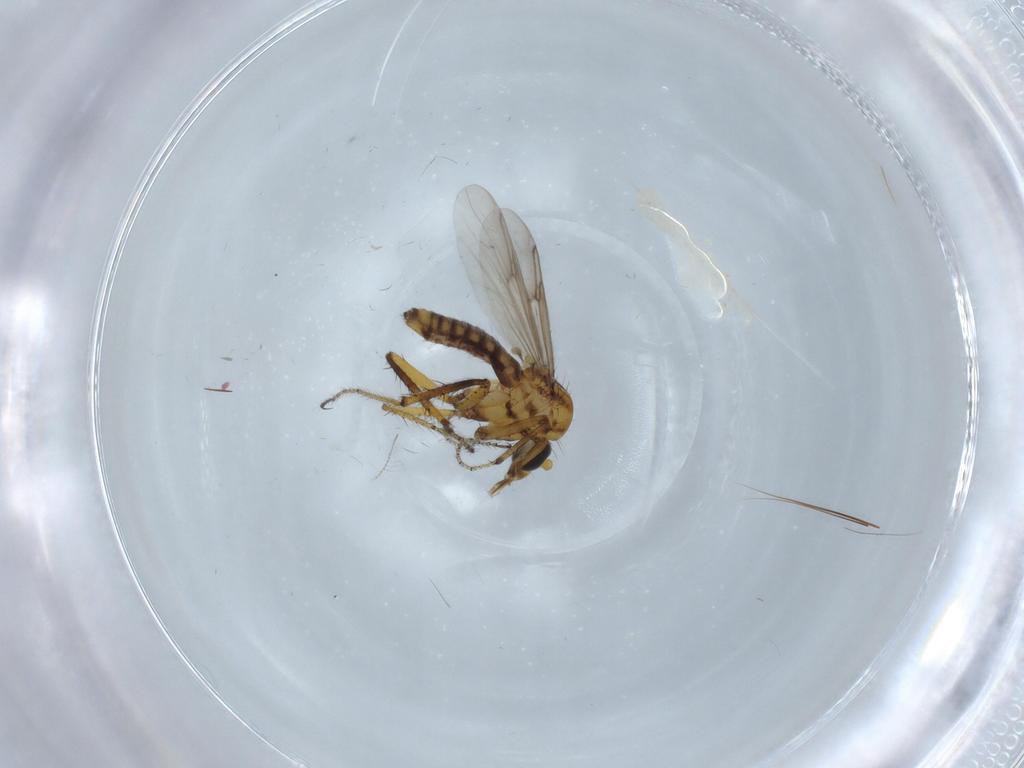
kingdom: Animalia
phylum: Arthropoda
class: Insecta
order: Diptera
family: Ceratopogonidae
